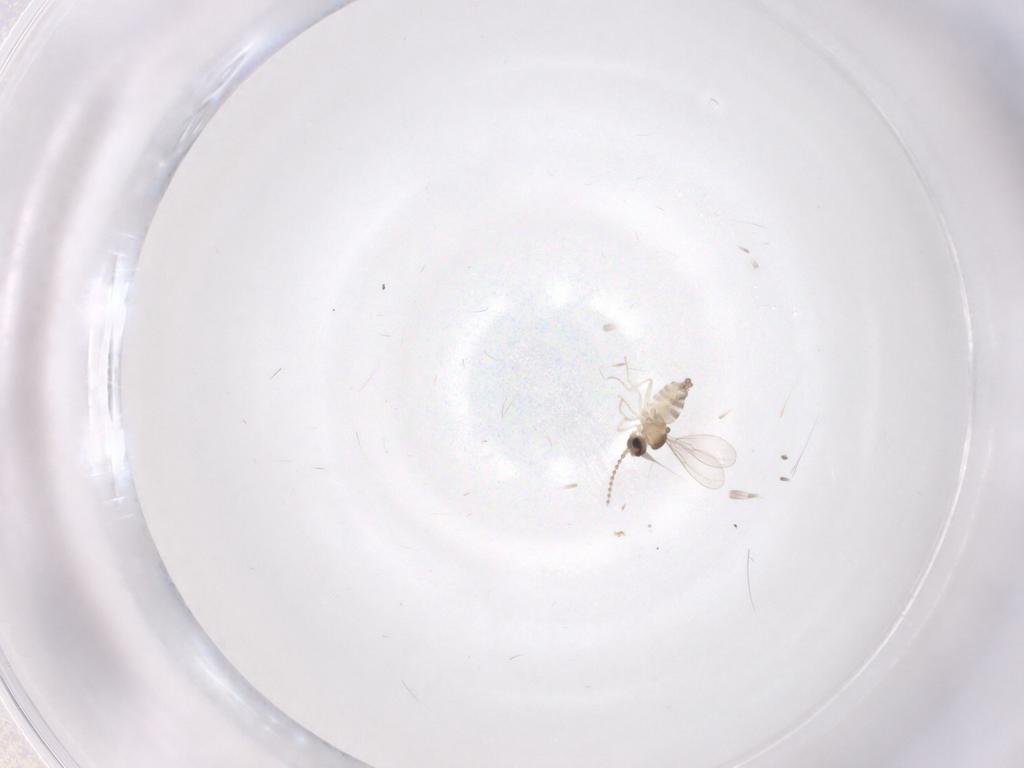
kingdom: Animalia
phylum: Arthropoda
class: Insecta
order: Diptera
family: Cecidomyiidae
